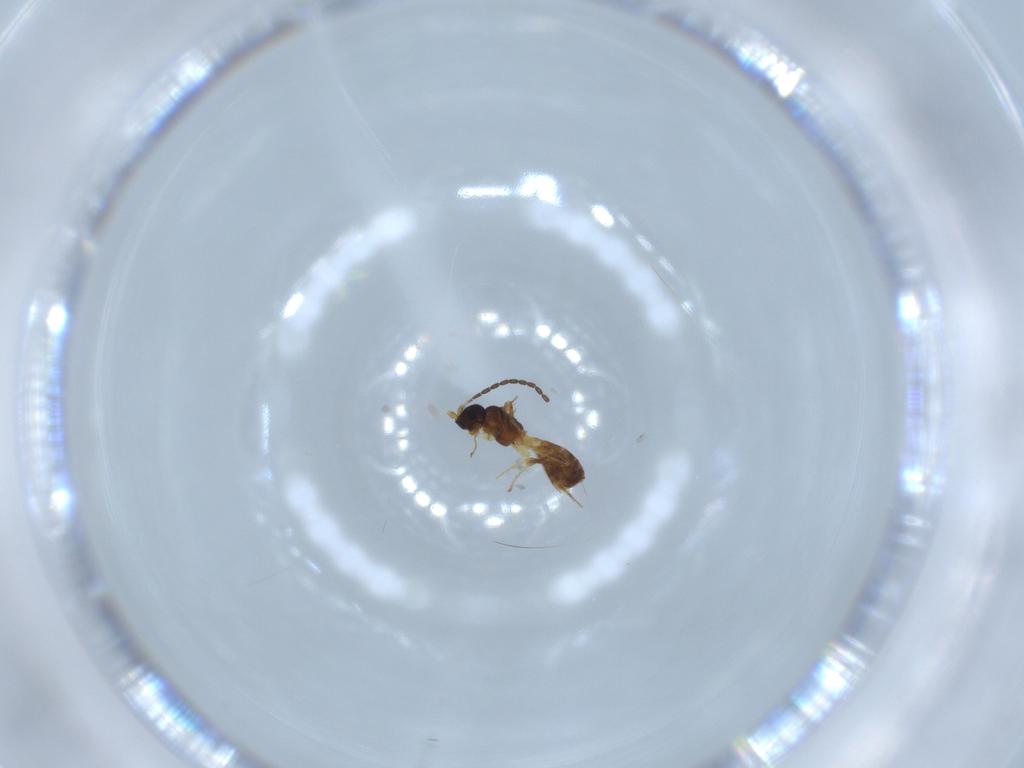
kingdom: Animalia
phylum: Arthropoda
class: Insecta
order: Hymenoptera
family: Braconidae
